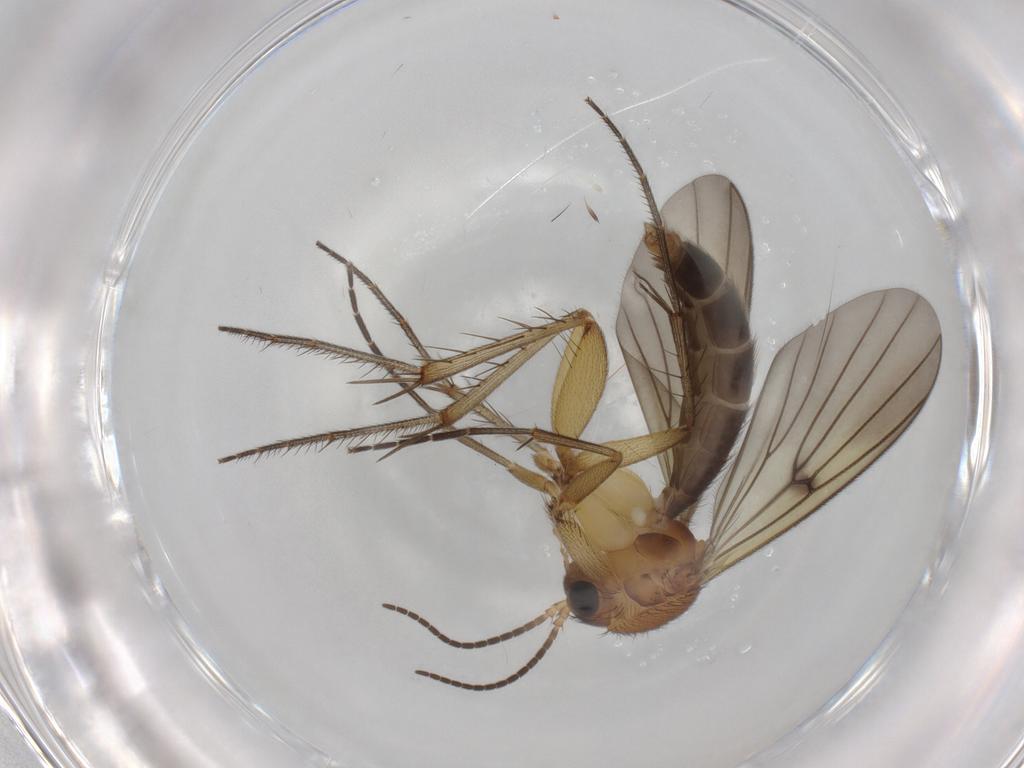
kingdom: Animalia
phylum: Arthropoda
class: Insecta
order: Diptera
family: Mycetophilidae
